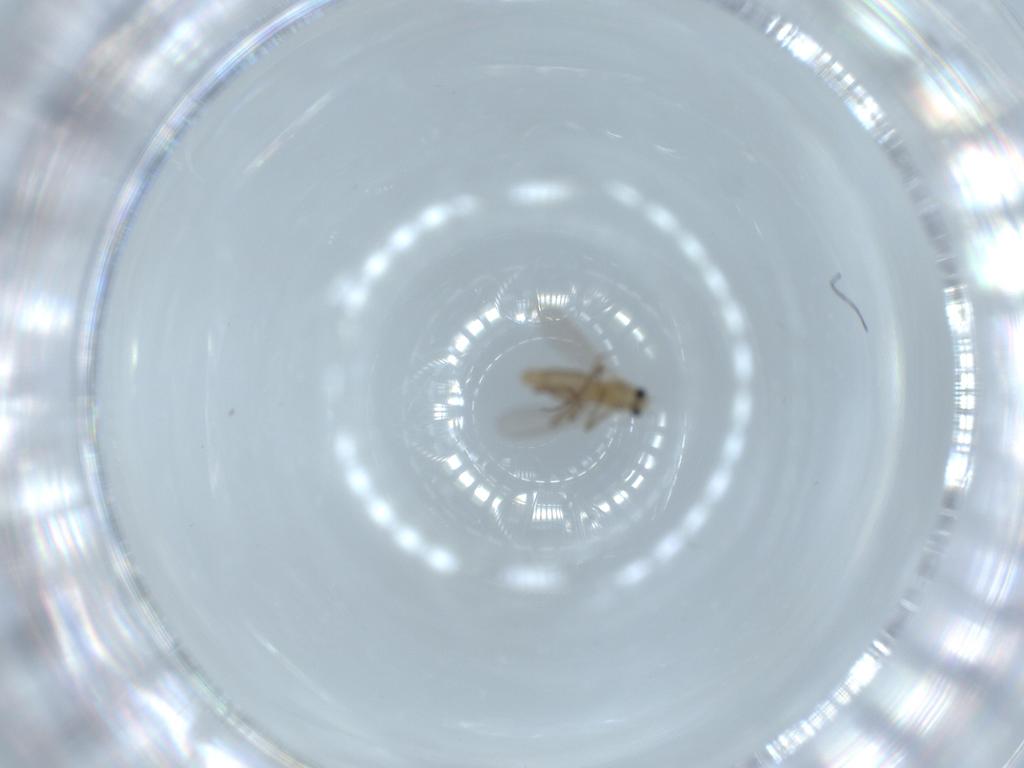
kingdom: Animalia
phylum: Arthropoda
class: Insecta
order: Diptera
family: Chironomidae
